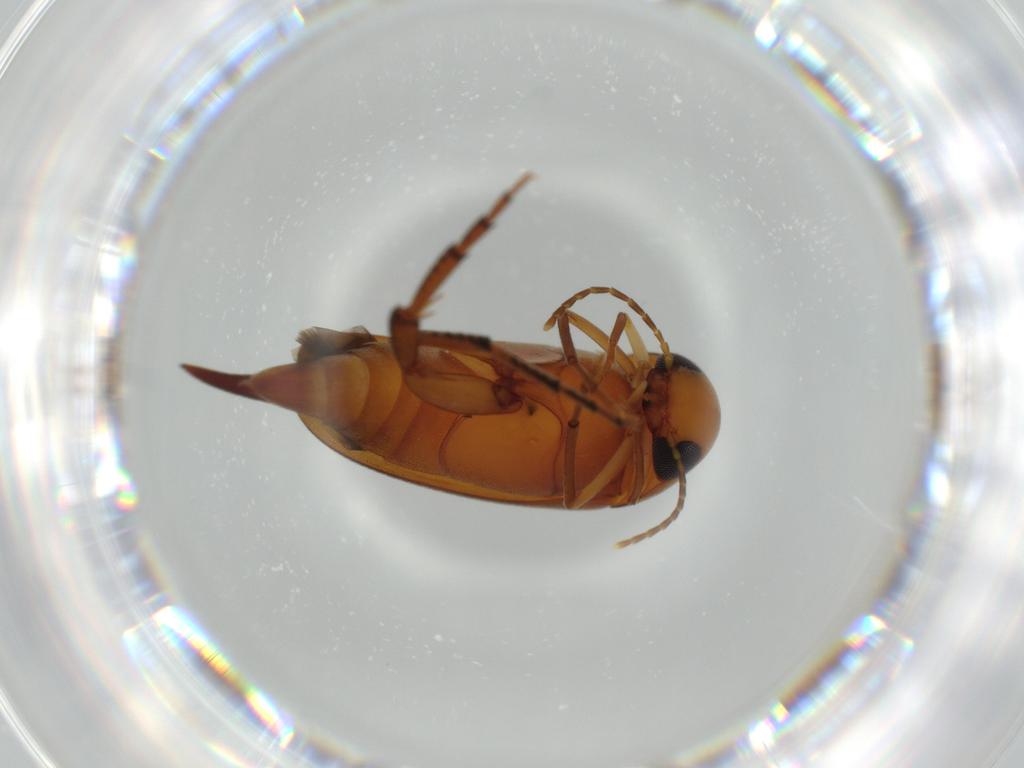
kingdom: Animalia
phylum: Arthropoda
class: Insecta
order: Coleoptera
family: Mordellidae
